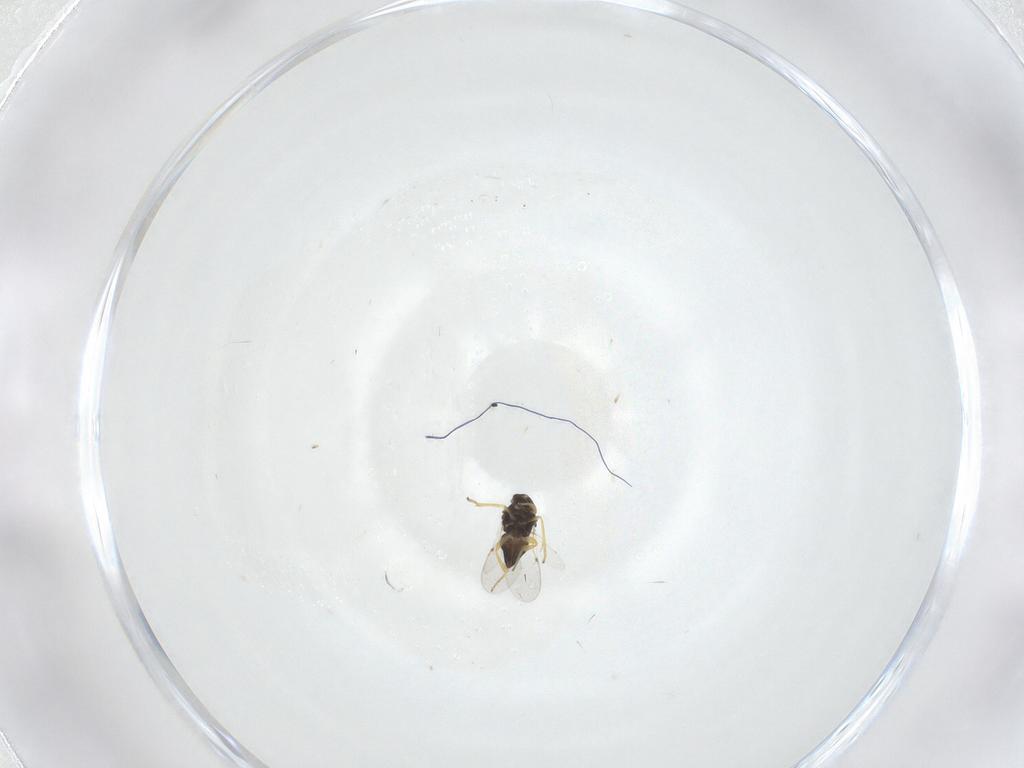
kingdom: Animalia
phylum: Arthropoda
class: Insecta
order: Hymenoptera
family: Encyrtidae
